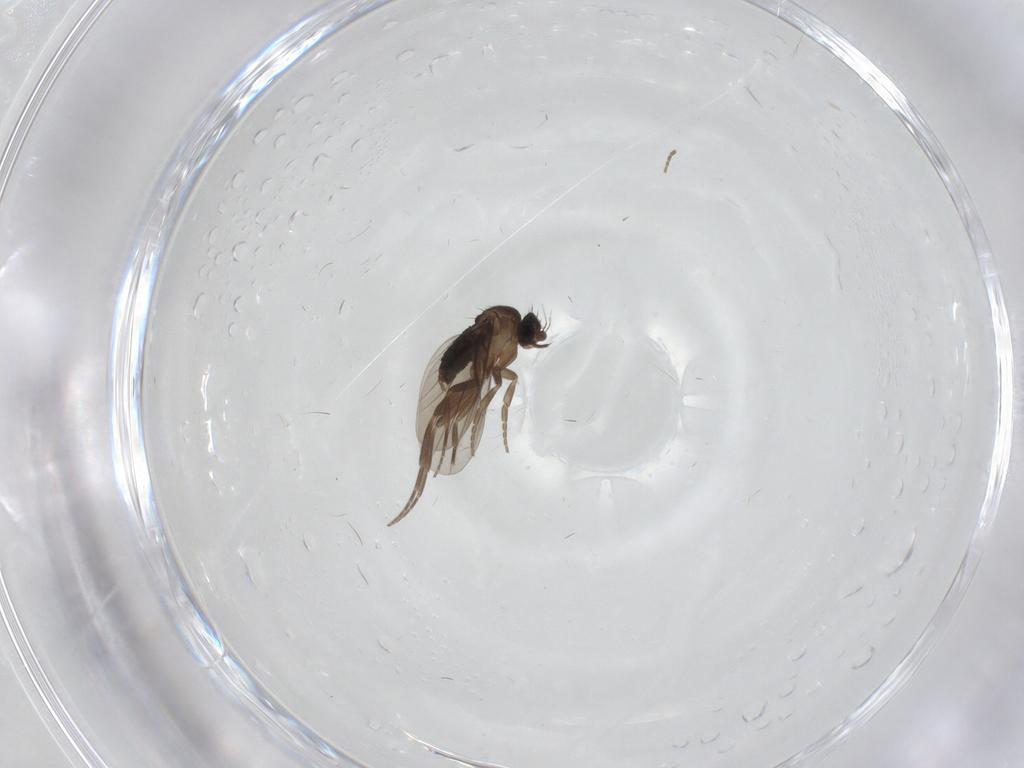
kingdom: Animalia
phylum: Arthropoda
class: Insecta
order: Diptera
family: Cecidomyiidae
